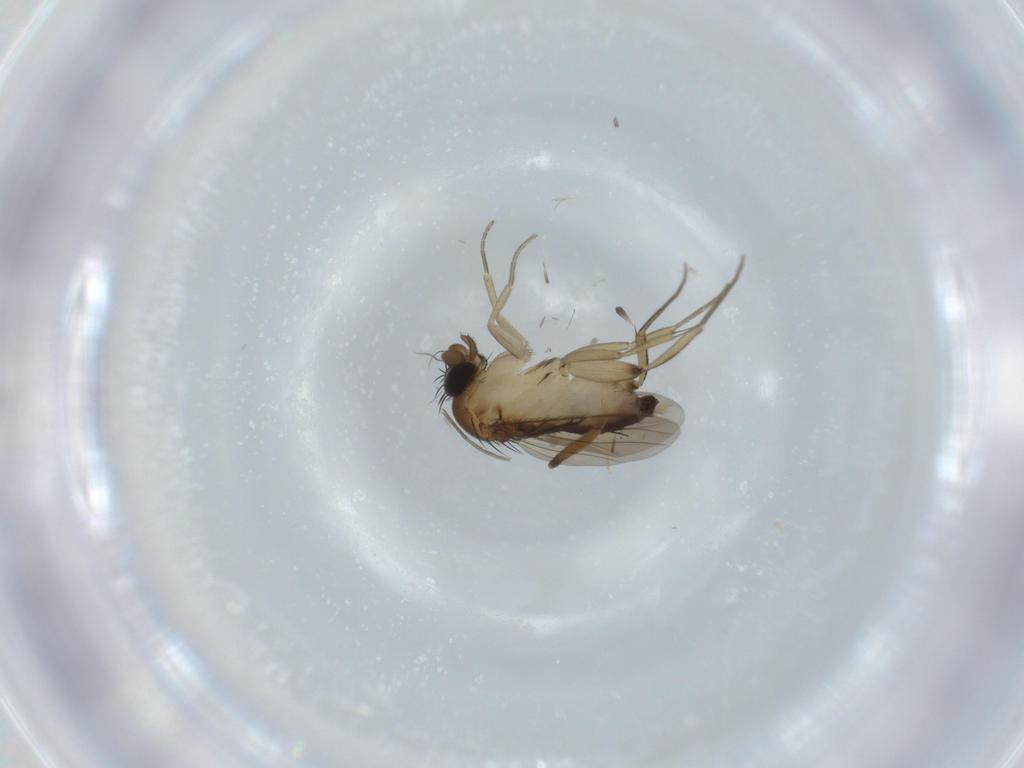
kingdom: Animalia
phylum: Arthropoda
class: Insecta
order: Diptera
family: Phoridae
